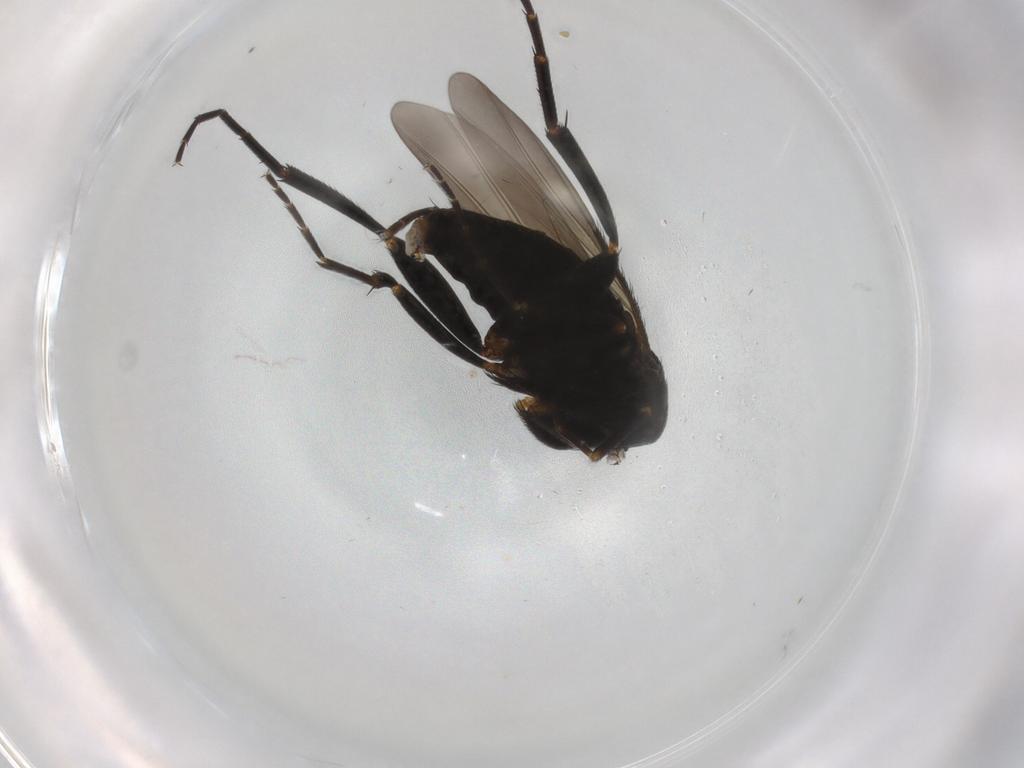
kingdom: Animalia
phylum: Arthropoda
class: Insecta
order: Diptera
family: Phoridae
